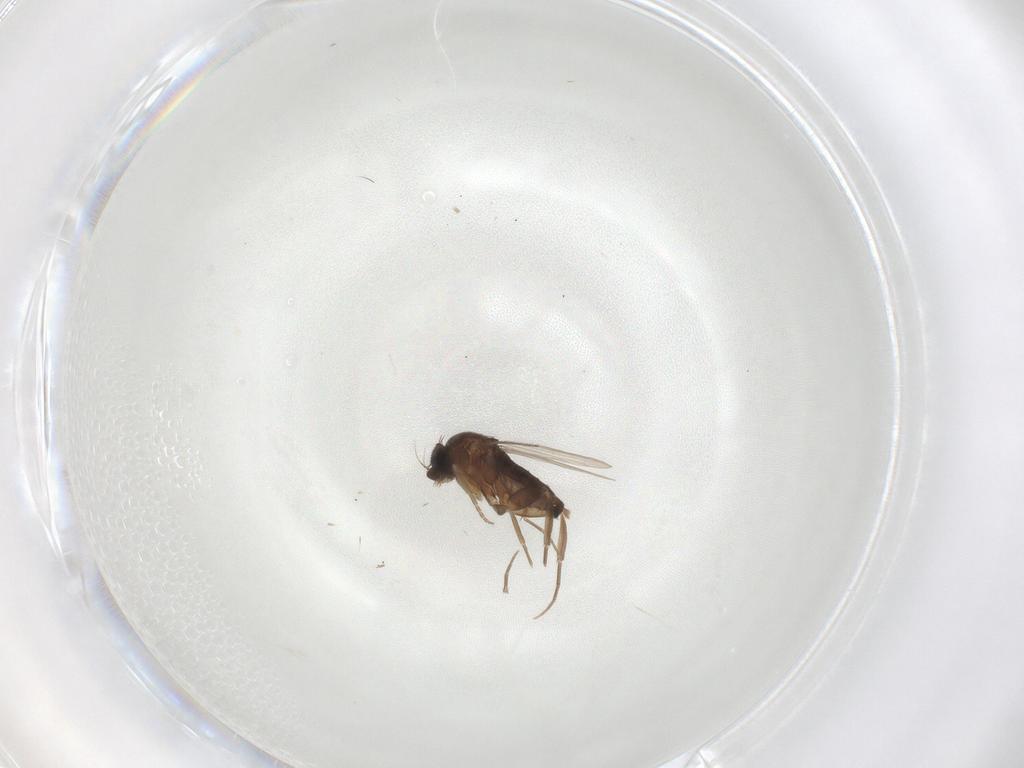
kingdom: Animalia
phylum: Arthropoda
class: Insecta
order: Diptera
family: Phoridae
